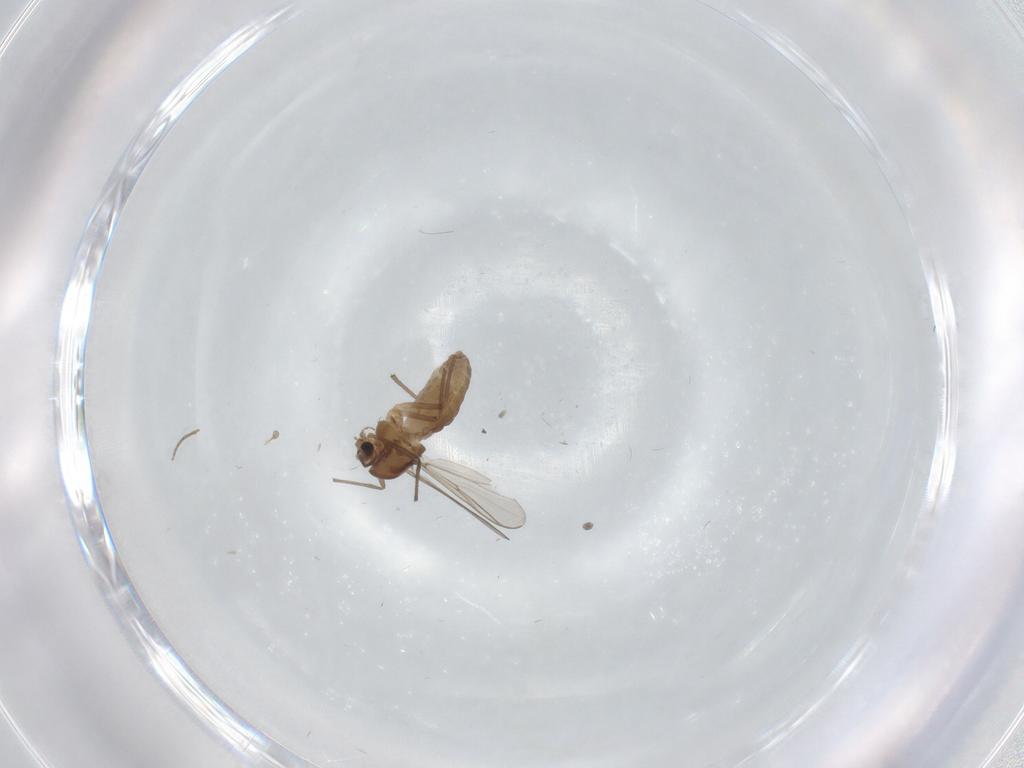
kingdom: Animalia
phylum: Arthropoda
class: Insecta
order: Diptera
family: Chironomidae
